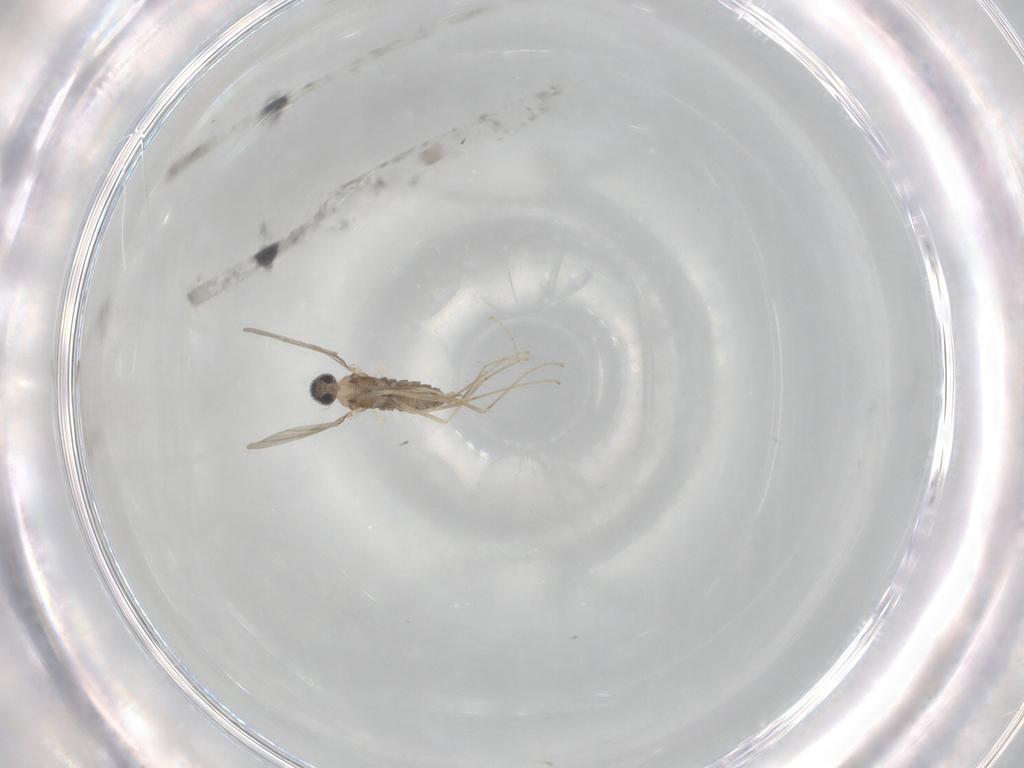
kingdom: Animalia
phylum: Arthropoda
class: Insecta
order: Diptera
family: Cecidomyiidae
